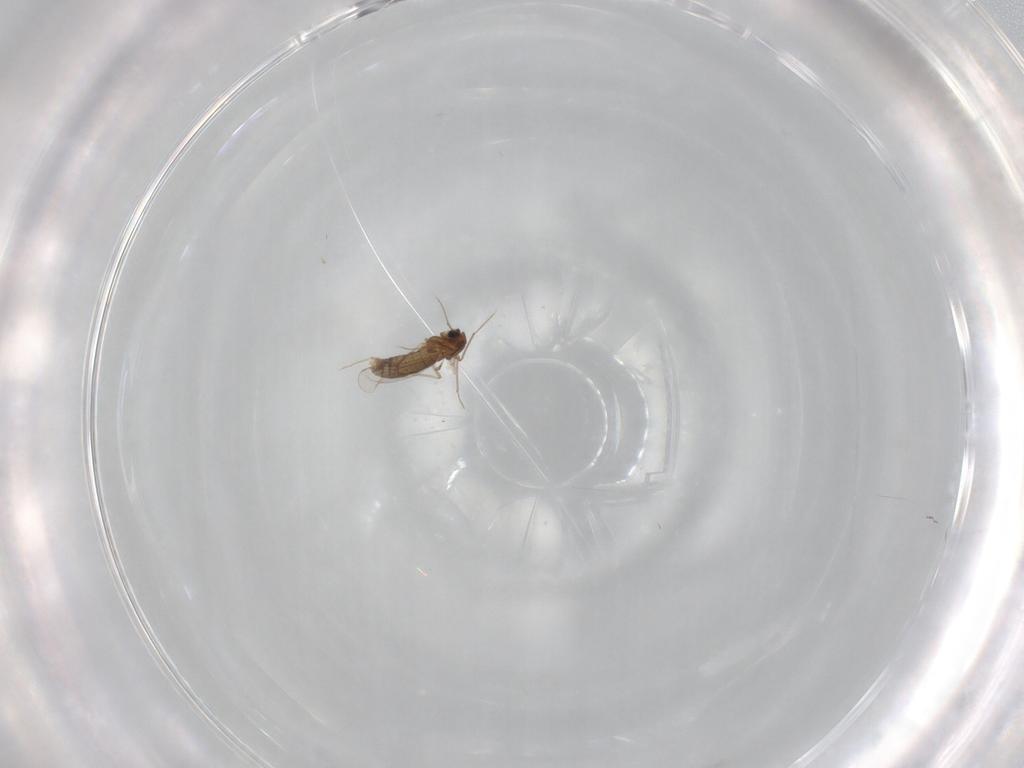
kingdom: Animalia
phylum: Arthropoda
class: Insecta
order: Diptera
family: Chironomidae
